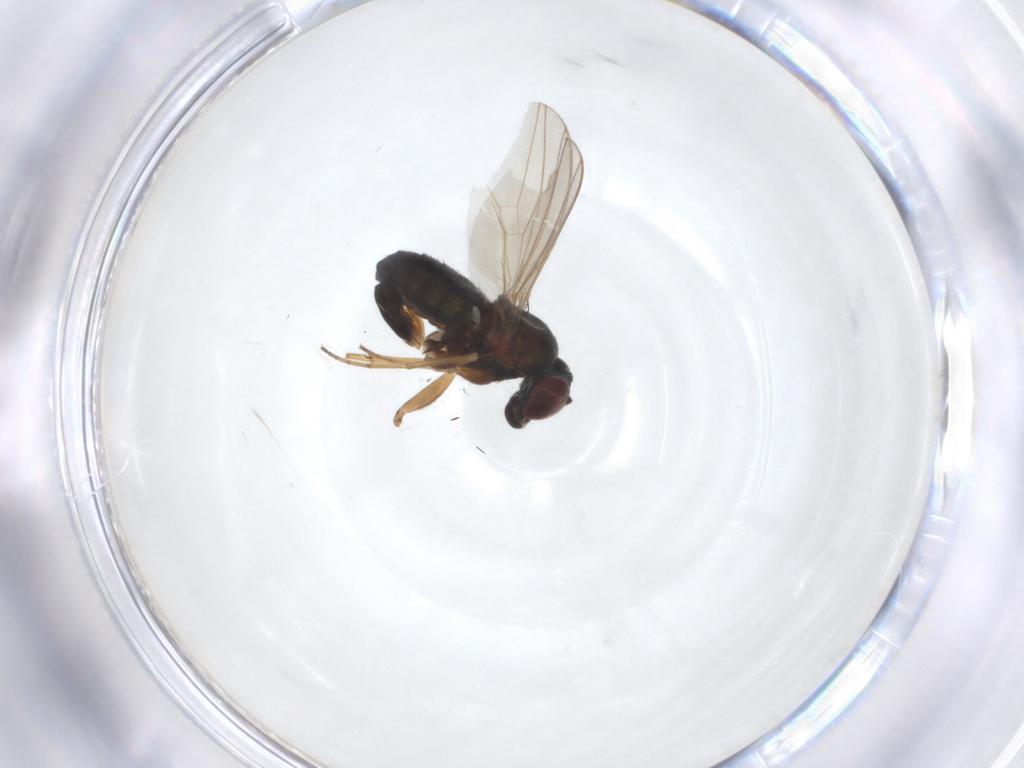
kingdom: Animalia
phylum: Arthropoda
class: Insecta
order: Diptera
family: Dolichopodidae
